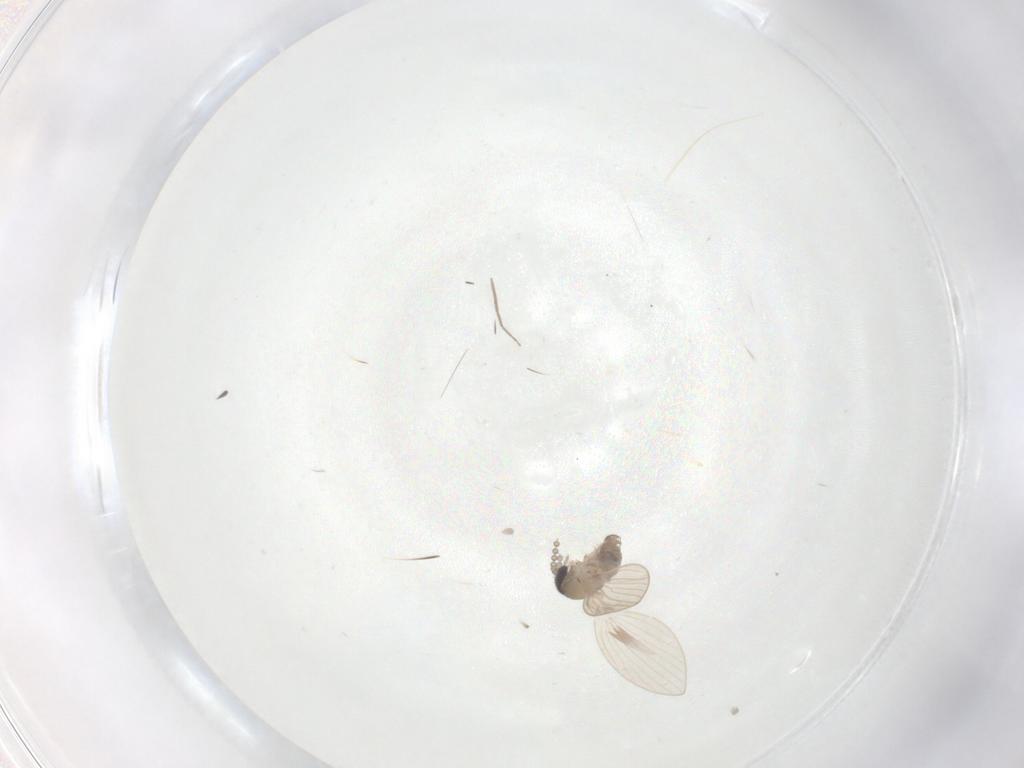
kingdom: Animalia
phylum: Arthropoda
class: Insecta
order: Diptera
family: Psychodidae
